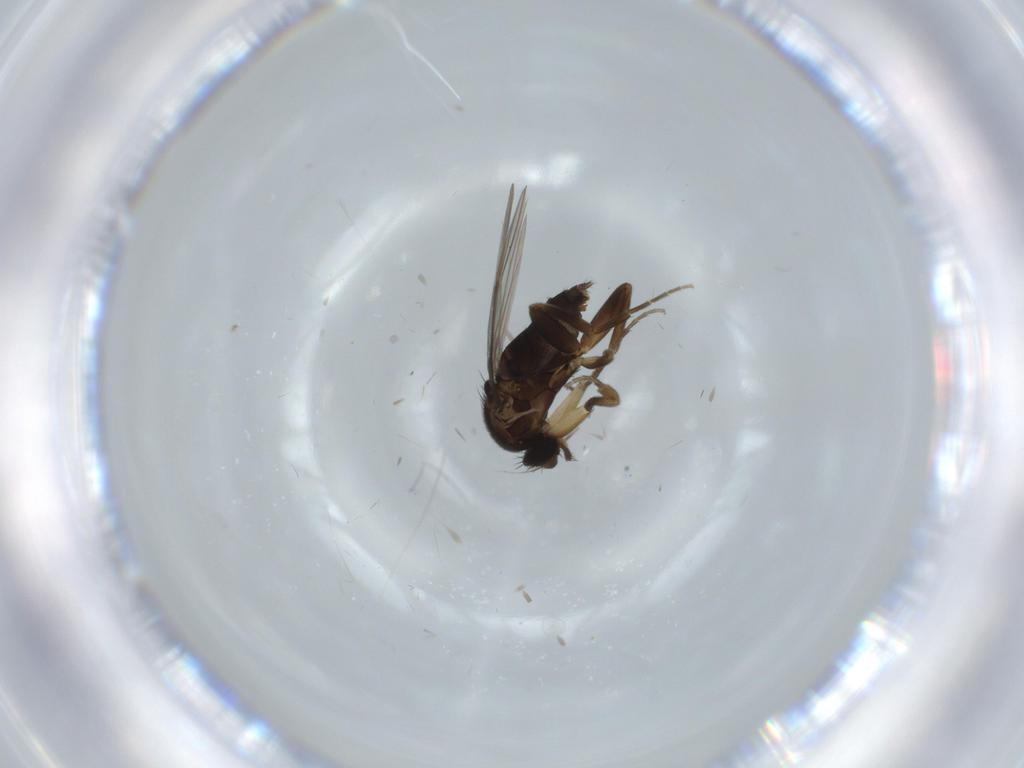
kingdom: Animalia
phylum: Arthropoda
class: Insecta
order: Diptera
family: Phoridae
